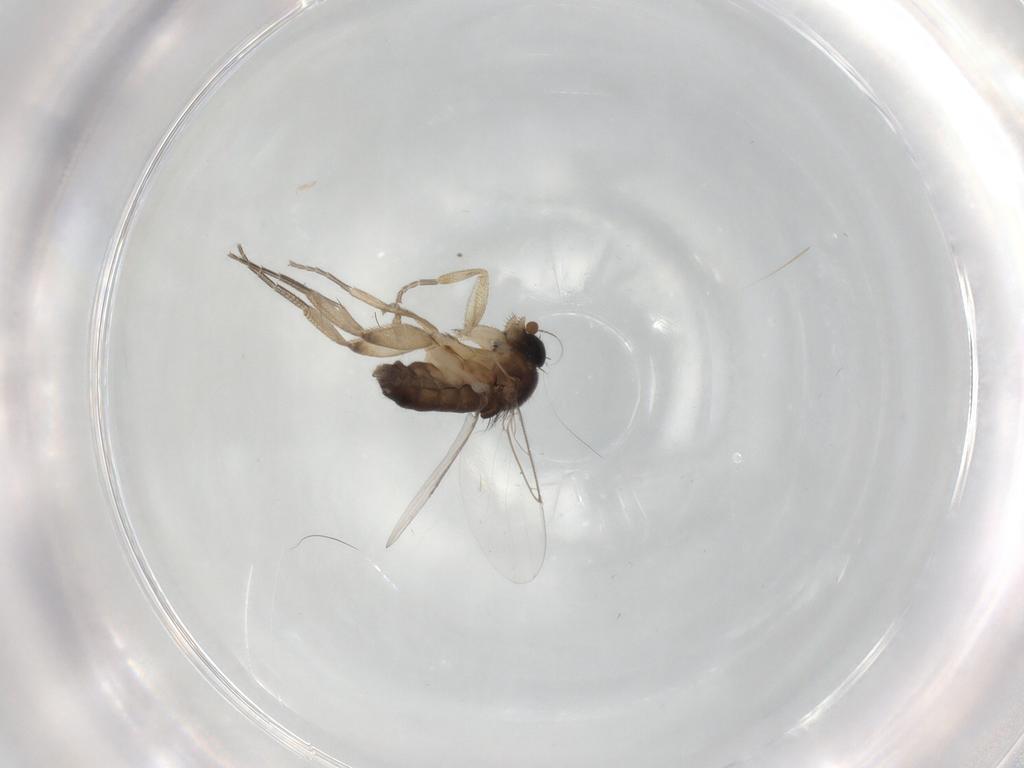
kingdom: Animalia
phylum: Arthropoda
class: Insecta
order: Diptera
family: Phoridae
